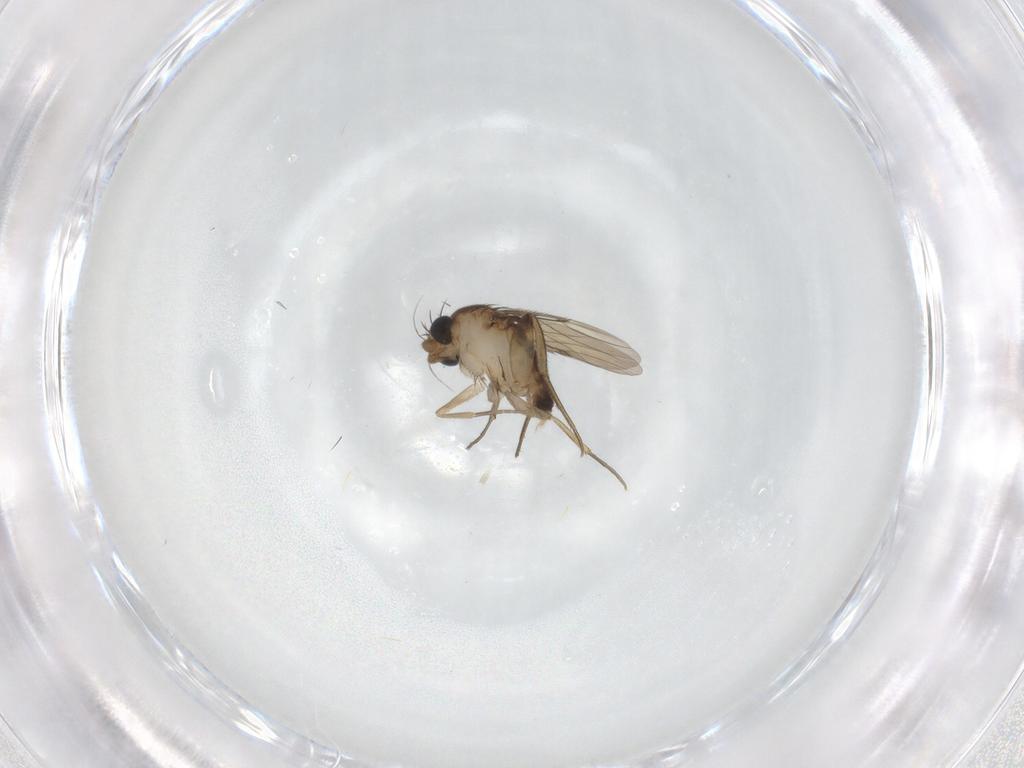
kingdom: Animalia
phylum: Arthropoda
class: Insecta
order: Diptera
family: Phoridae
